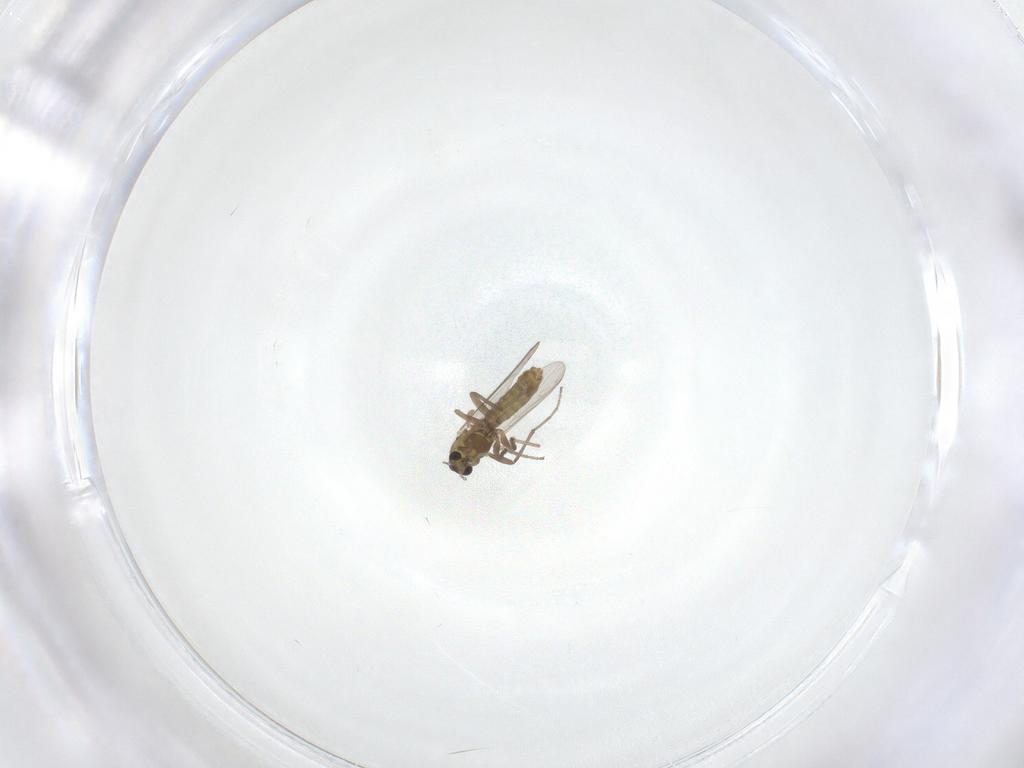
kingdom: Animalia
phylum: Arthropoda
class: Insecta
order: Diptera
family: Chironomidae
